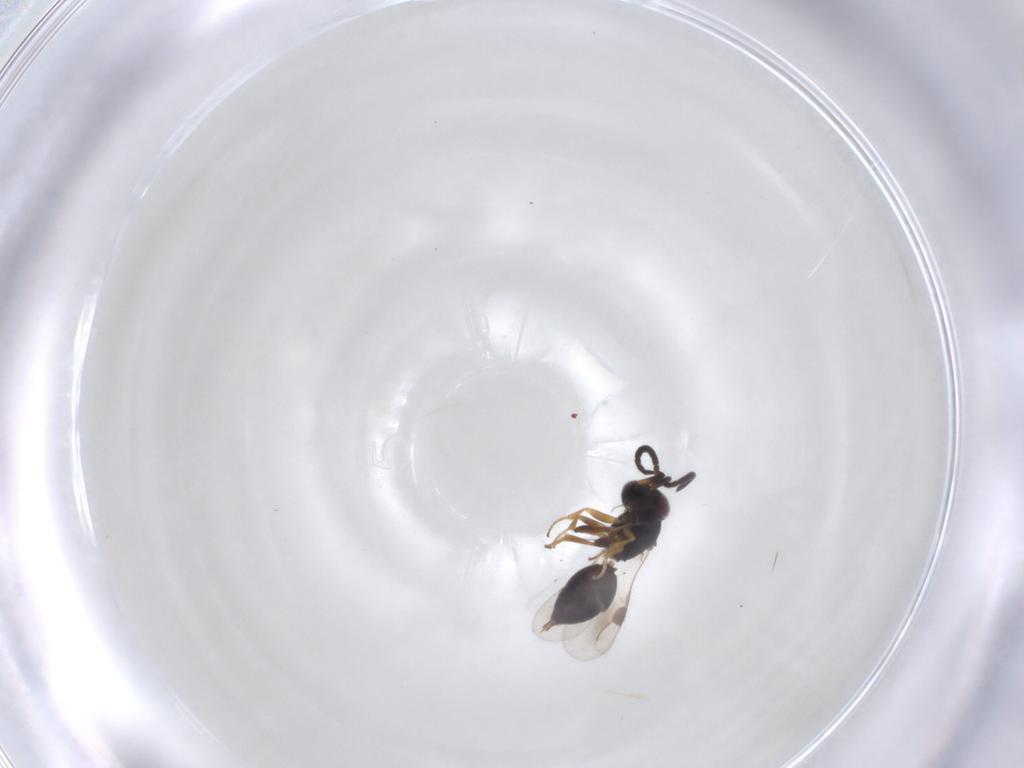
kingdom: Animalia
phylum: Arthropoda
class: Insecta
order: Hymenoptera
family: Scelionidae
